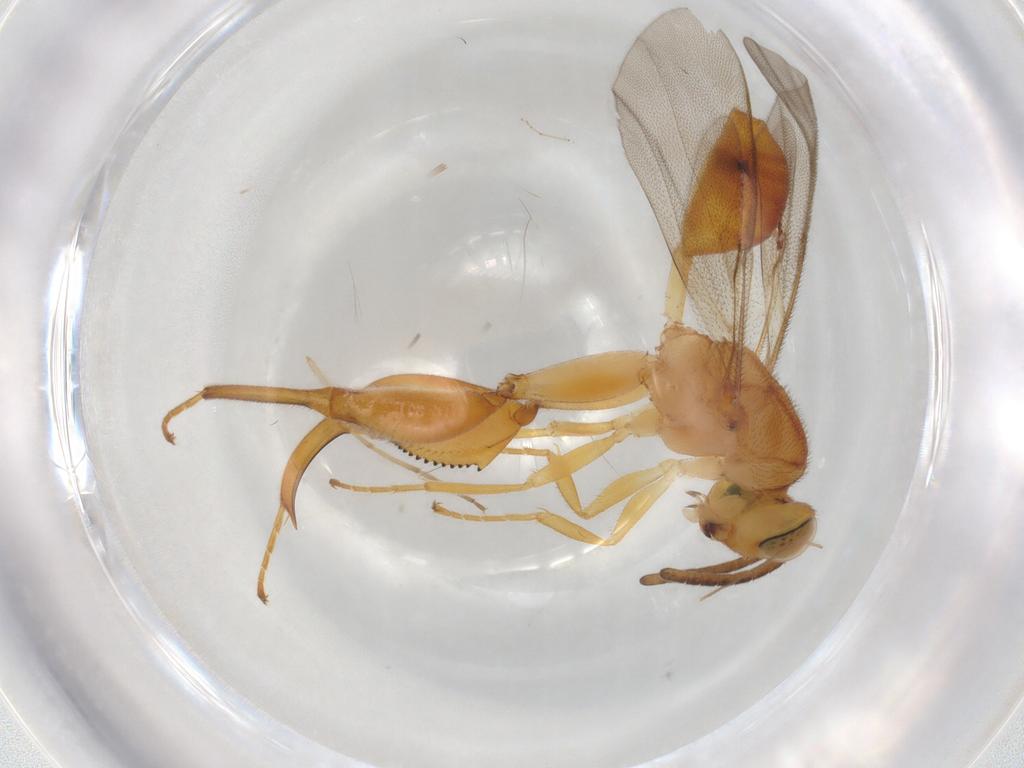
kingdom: Animalia
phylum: Arthropoda
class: Insecta
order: Hymenoptera
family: Chalcididae
